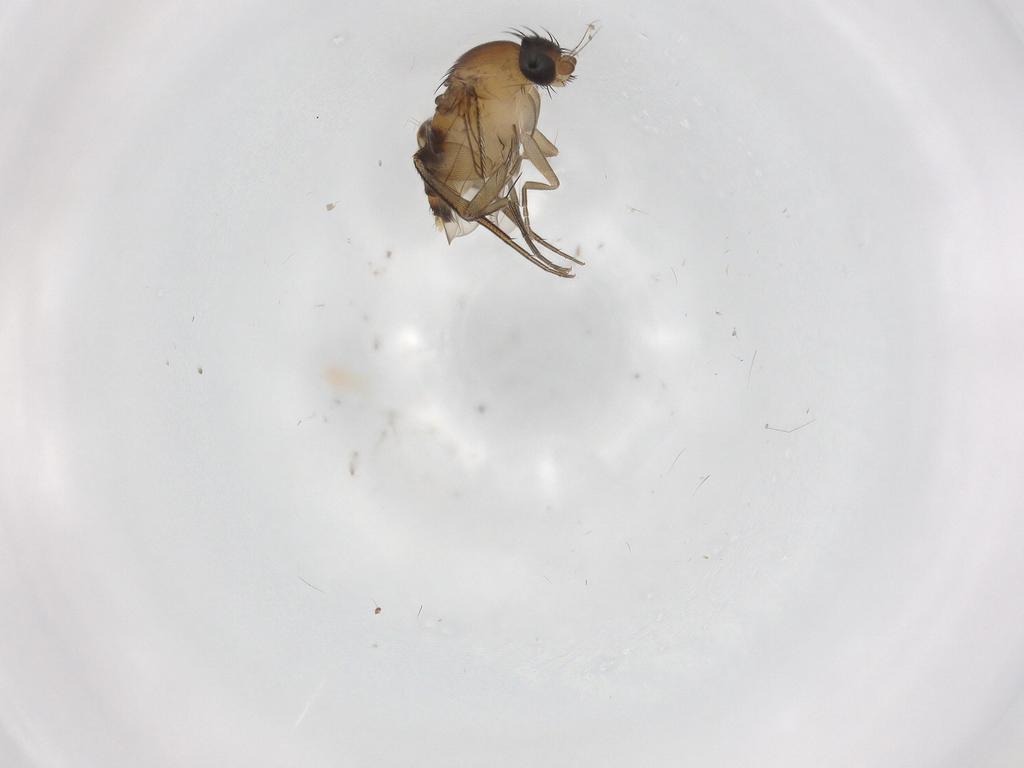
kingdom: Animalia
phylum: Arthropoda
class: Insecta
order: Diptera
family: Phoridae
